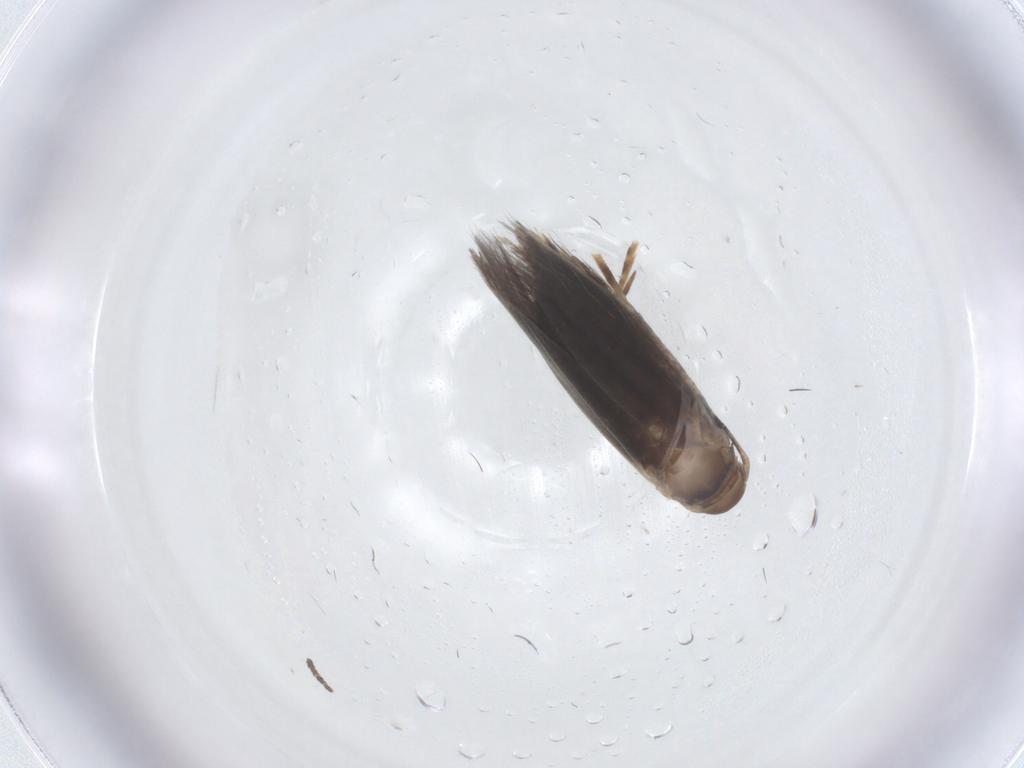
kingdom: Animalia
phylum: Arthropoda
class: Insecta
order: Lepidoptera
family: Elachistidae
